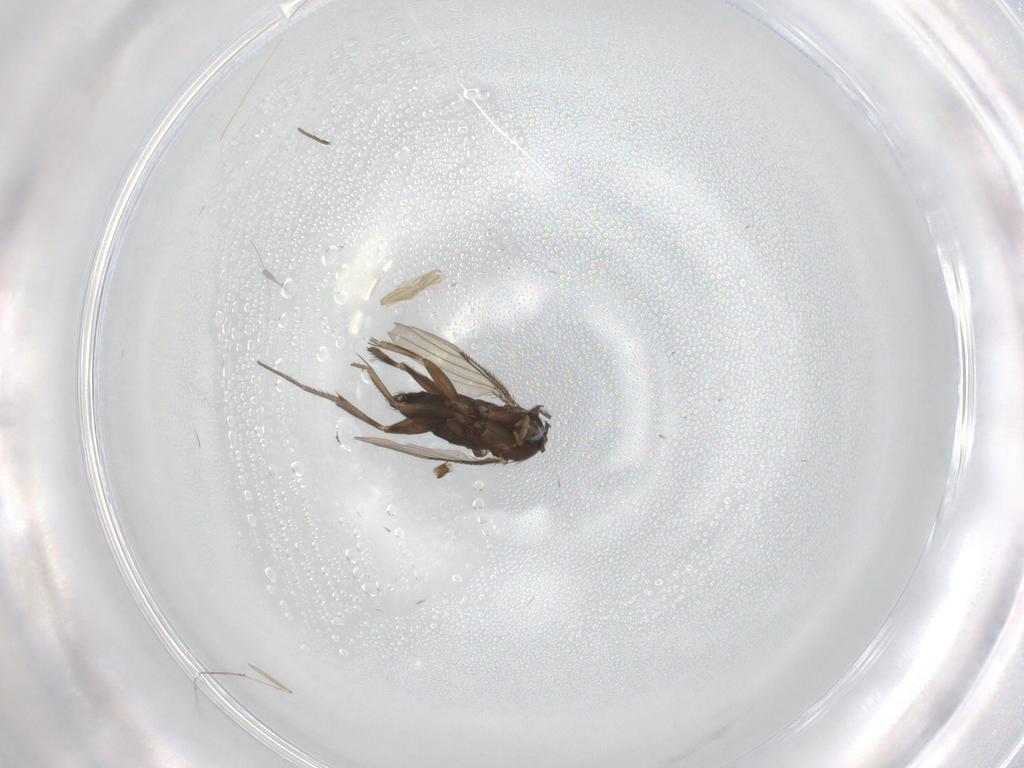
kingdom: Animalia
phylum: Arthropoda
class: Insecta
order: Diptera
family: Phoridae
